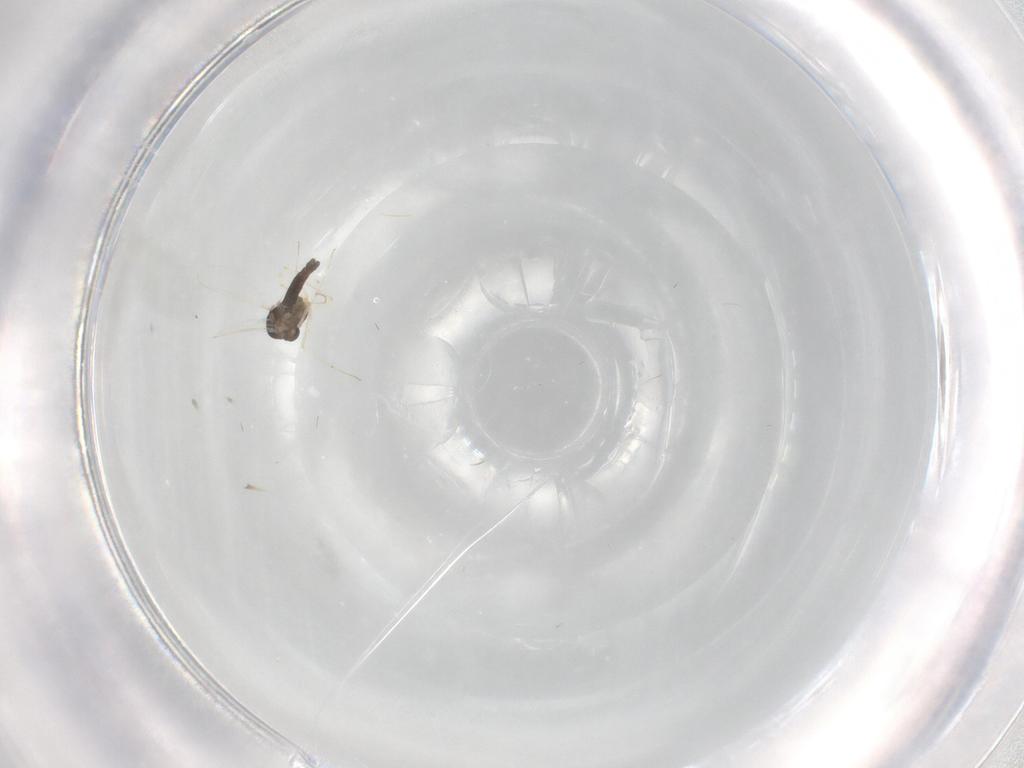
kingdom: Animalia
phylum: Arthropoda
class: Insecta
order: Diptera
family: Chironomidae
